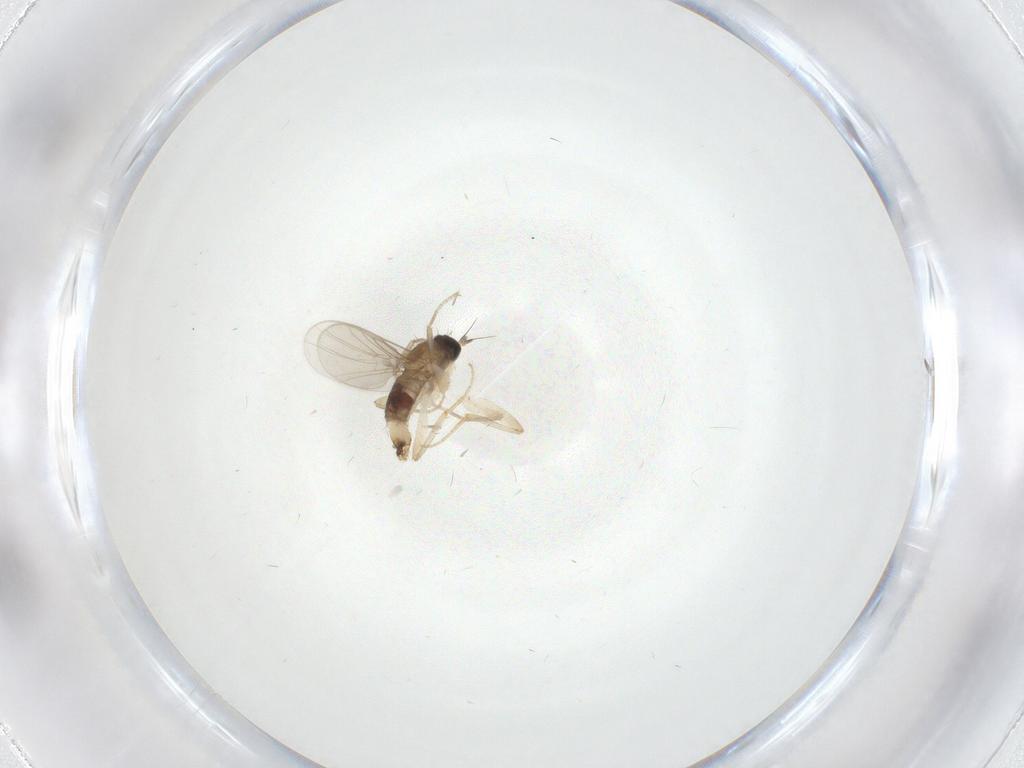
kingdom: Animalia
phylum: Arthropoda
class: Insecta
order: Diptera
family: Hybotidae
